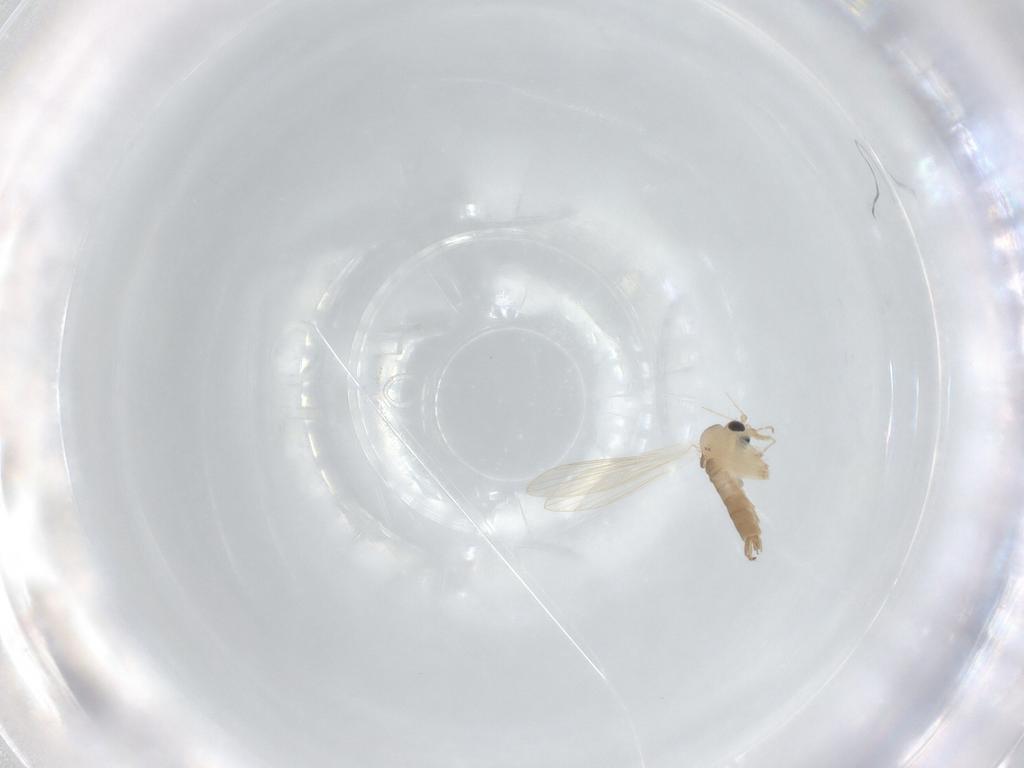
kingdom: Animalia
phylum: Arthropoda
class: Insecta
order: Diptera
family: Psychodidae
